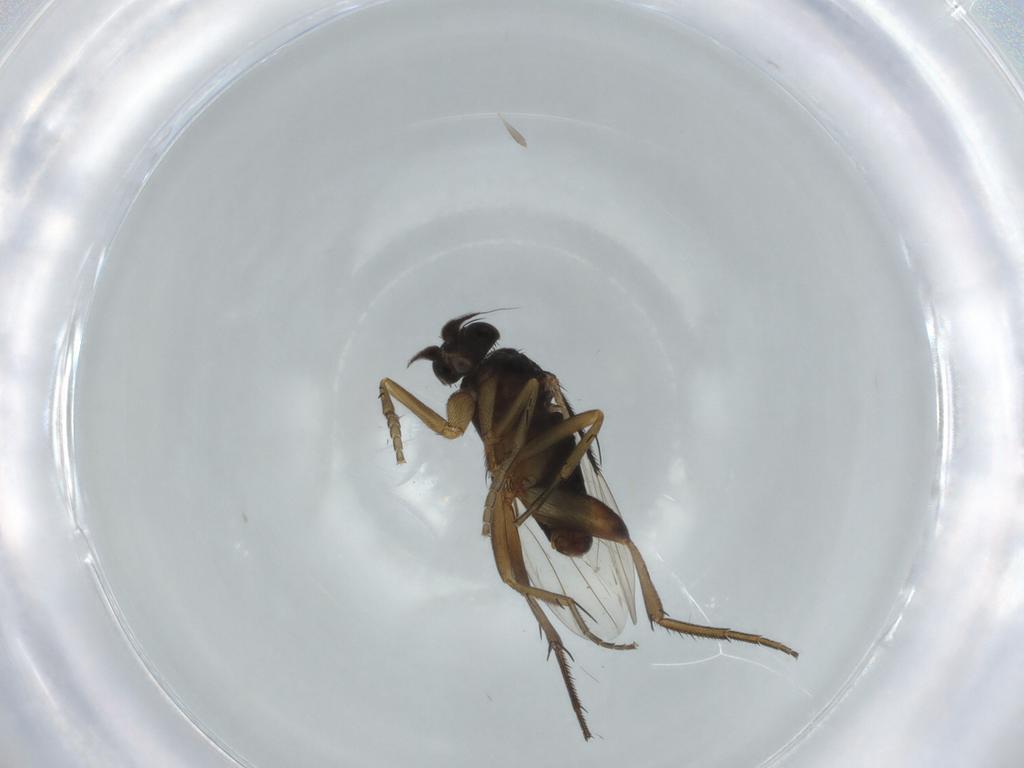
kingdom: Animalia
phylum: Arthropoda
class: Insecta
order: Diptera
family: Phoridae
